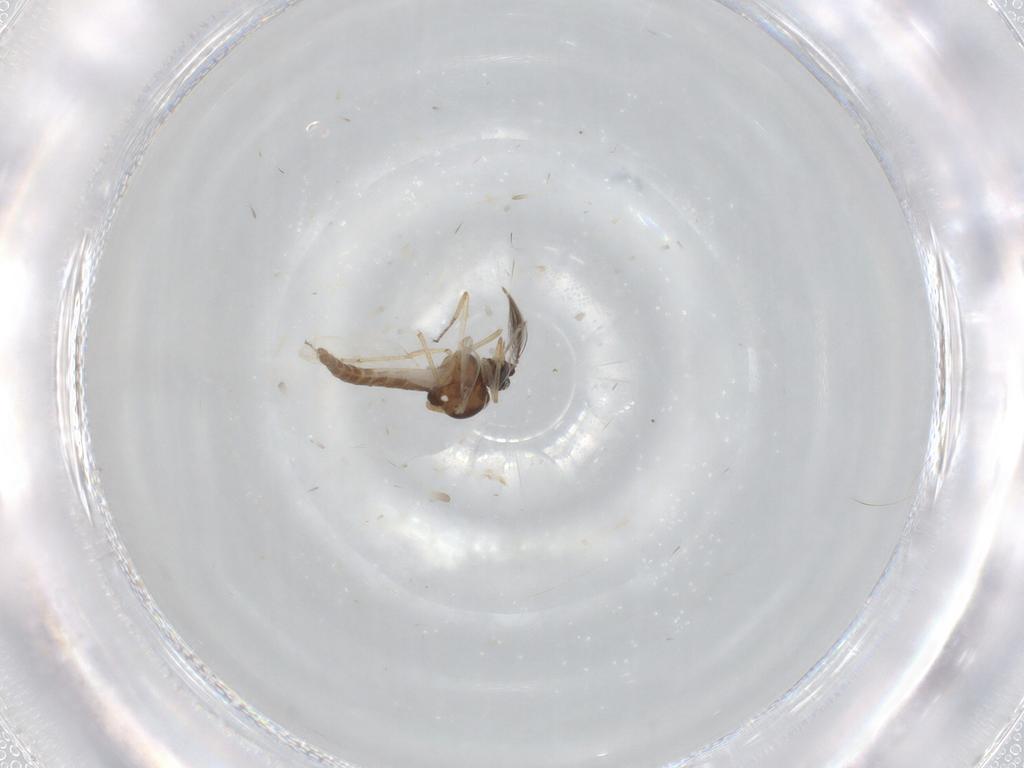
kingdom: Animalia
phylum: Arthropoda
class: Insecta
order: Diptera
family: Ceratopogonidae
